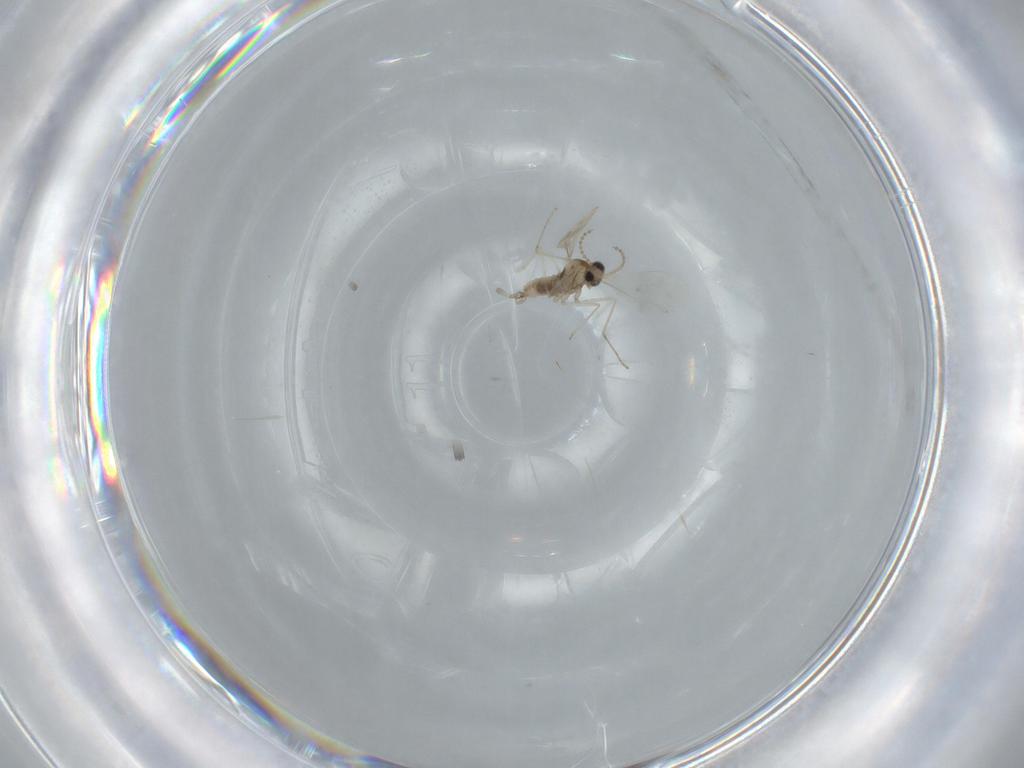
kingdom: Animalia
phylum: Arthropoda
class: Insecta
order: Diptera
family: Cecidomyiidae
